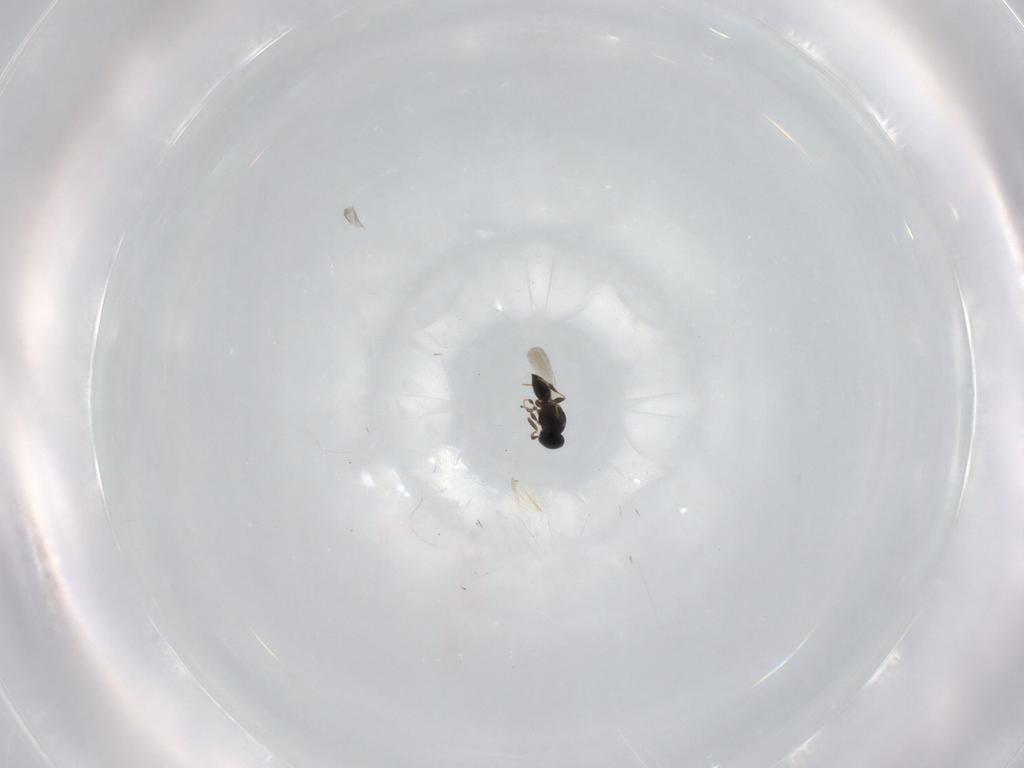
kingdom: Animalia
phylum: Arthropoda
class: Insecta
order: Hymenoptera
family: Platygastridae
